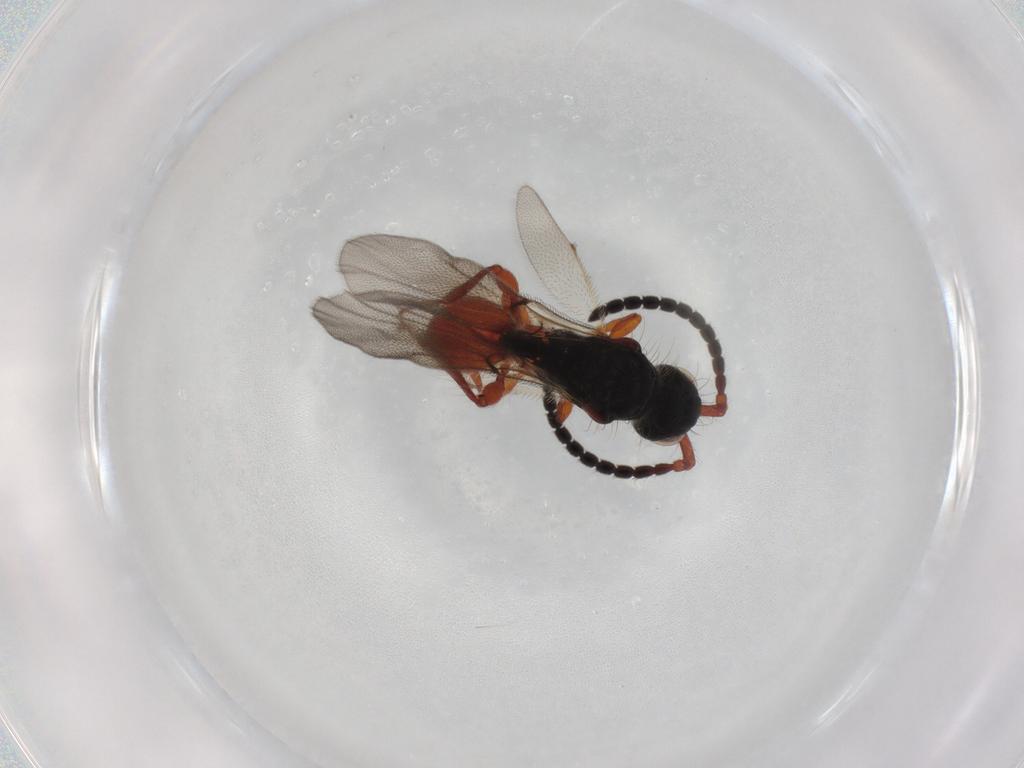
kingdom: Animalia
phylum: Arthropoda
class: Insecta
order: Hymenoptera
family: Diapriidae
